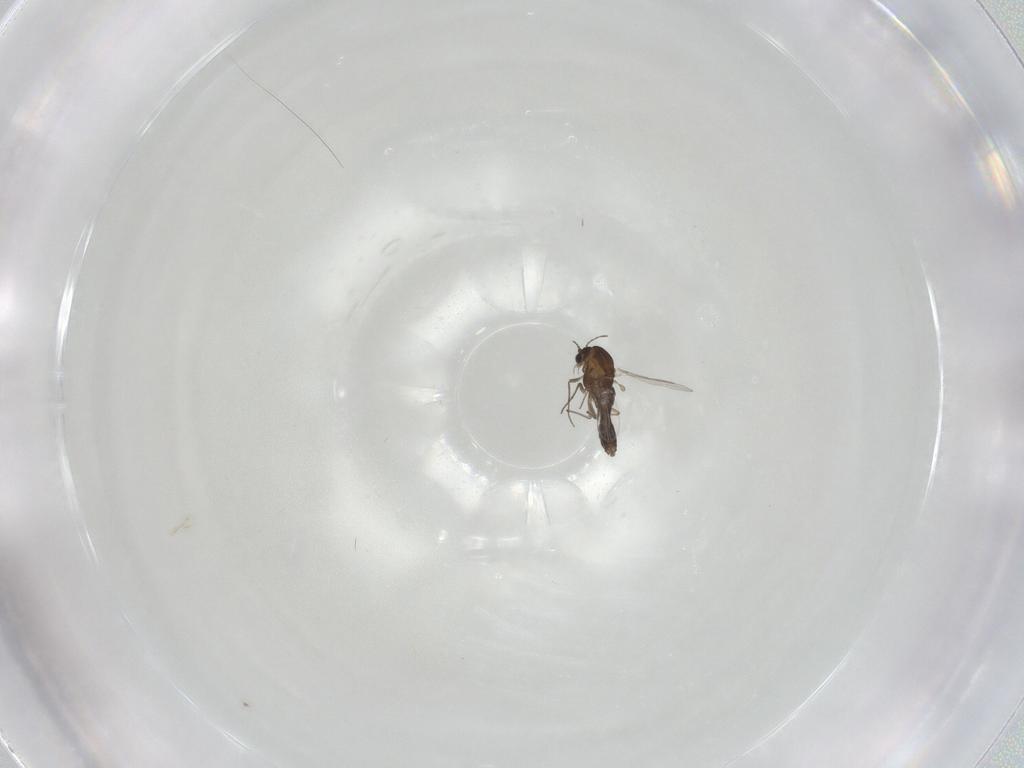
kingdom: Animalia
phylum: Arthropoda
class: Insecta
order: Diptera
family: Chironomidae
